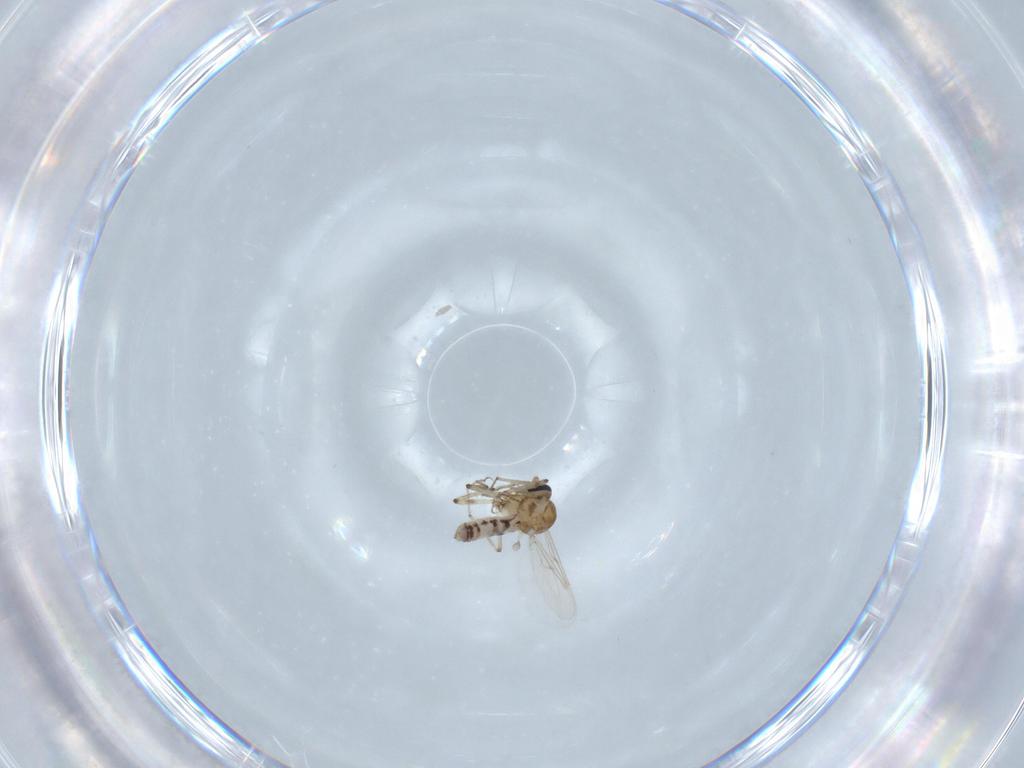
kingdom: Animalia
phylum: Arthropoda
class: Insecta
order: Diptera
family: Ceratopogonidae
